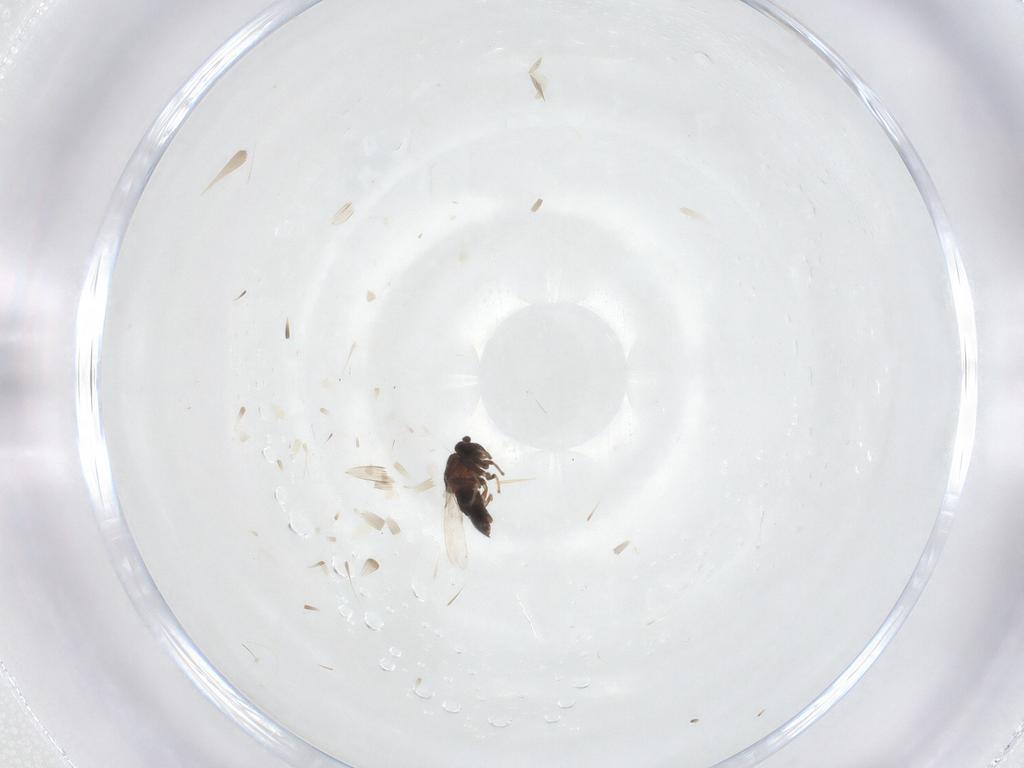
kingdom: Animalia
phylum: Arthropoda
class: Insecta
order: Diptera
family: Scatopsidae
